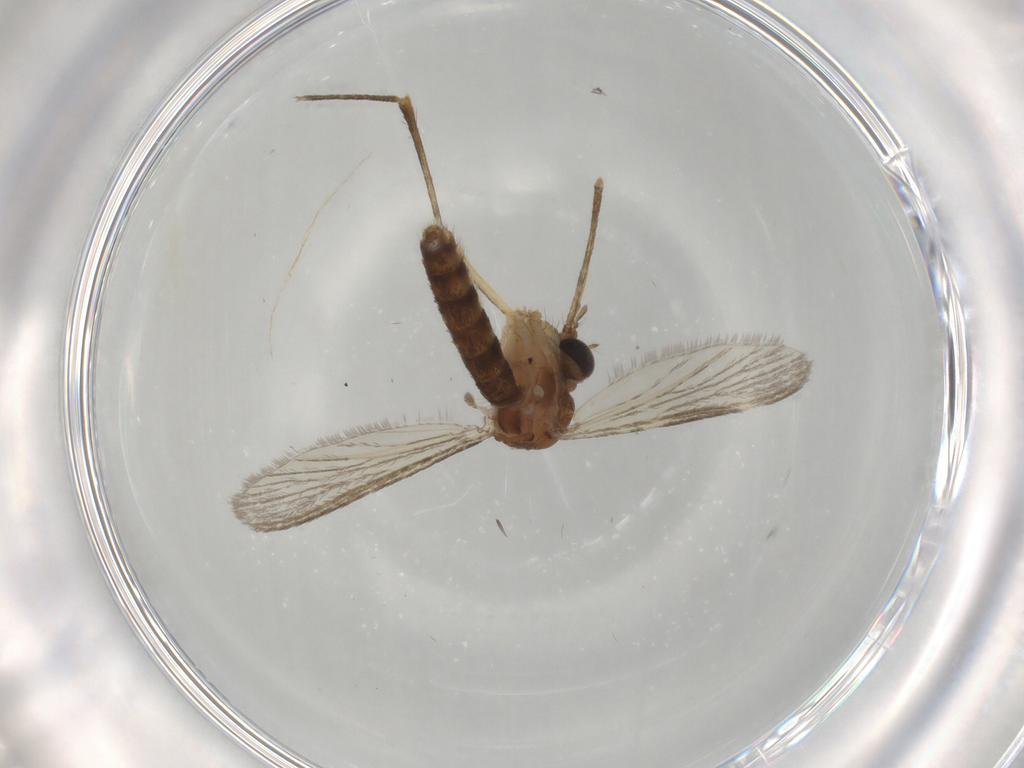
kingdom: Animalia
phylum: Arthropoda
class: Insecta
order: Diptera
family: Sciaridae
